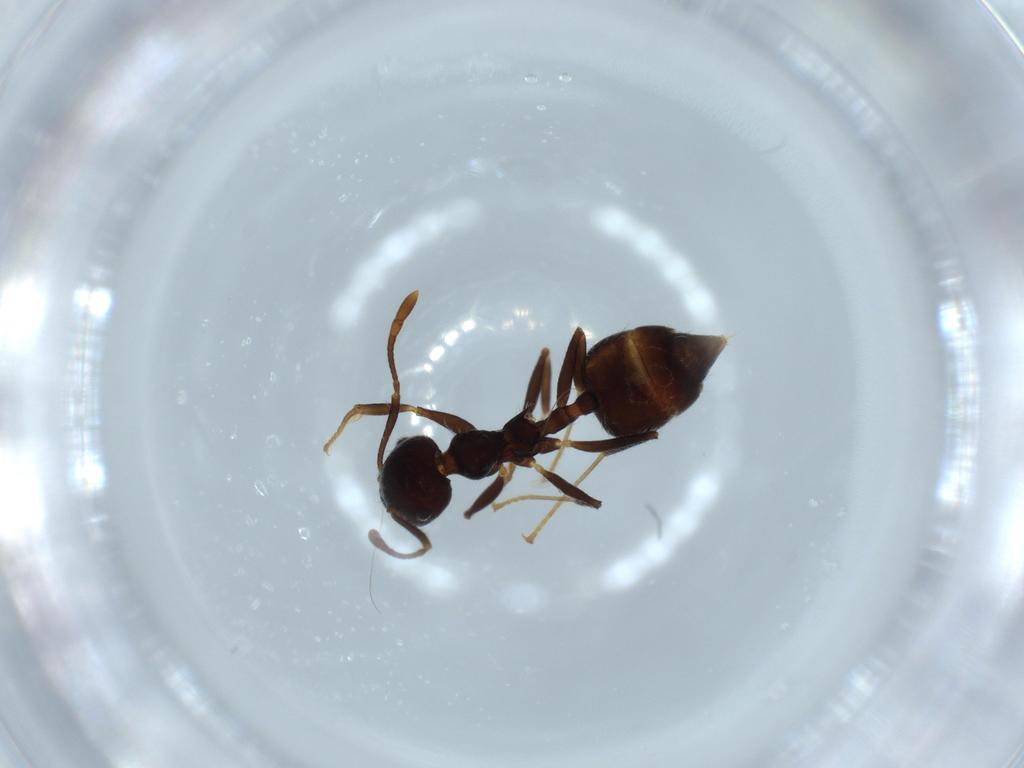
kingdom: Animalia
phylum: Arthropoda
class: Insecta
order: Hymenoptera
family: Formicidae
